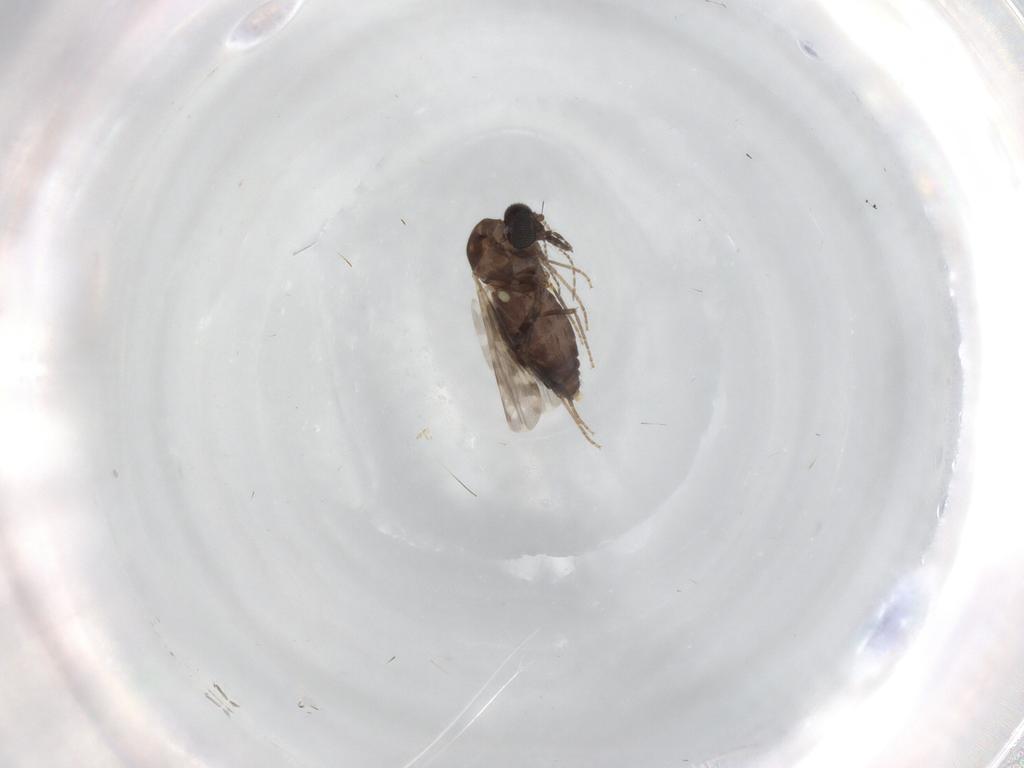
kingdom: Animalia
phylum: Arthropoda
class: Insecta
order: Diptera
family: Ceratopogonidae
